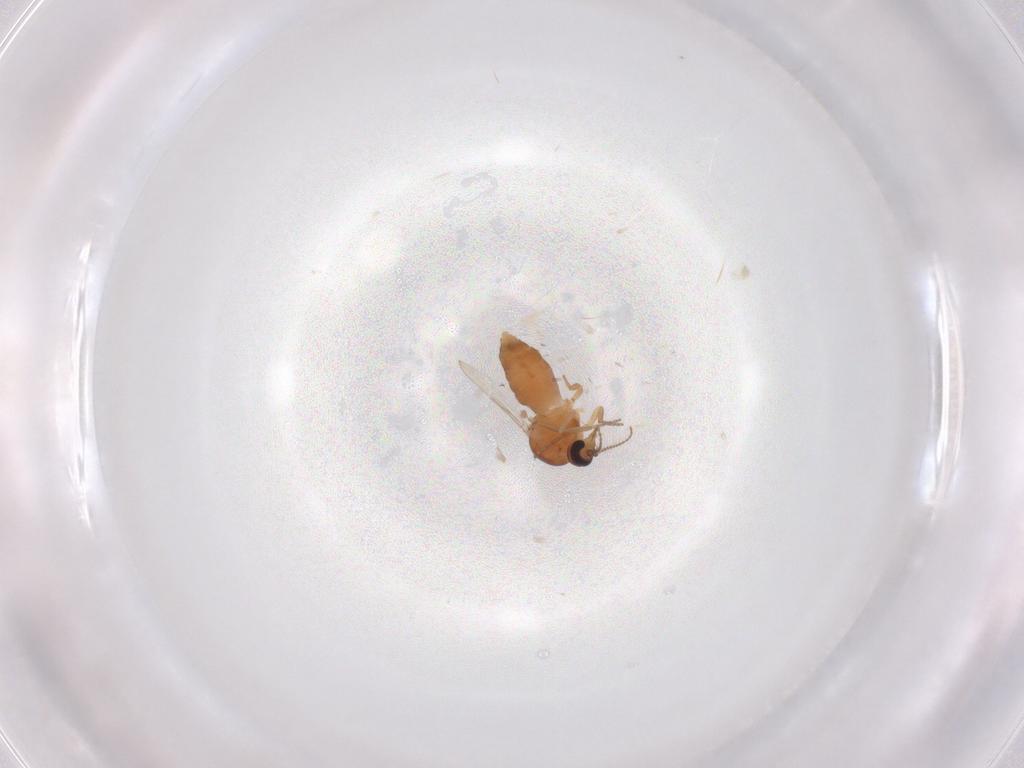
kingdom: Animalia
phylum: Arthropoda
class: Insecta
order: Diptera
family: Ceratopogonidae
